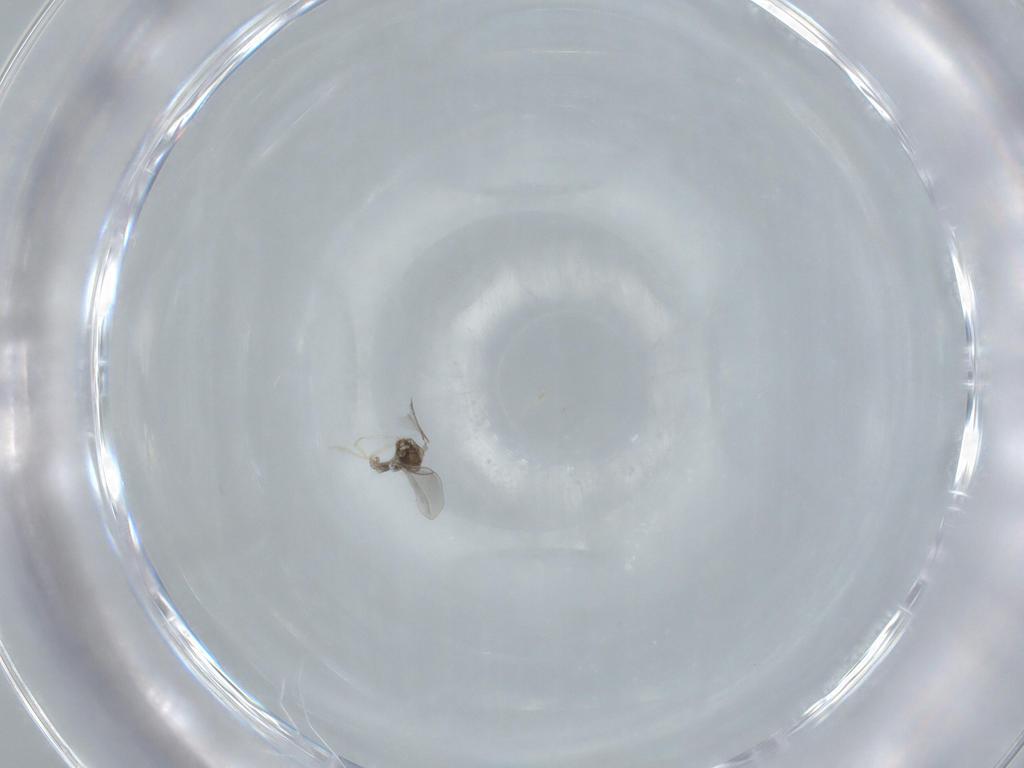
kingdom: Animalia
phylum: Arthropoda
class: Insecta
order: Diptera
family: Cecidomyiidae
